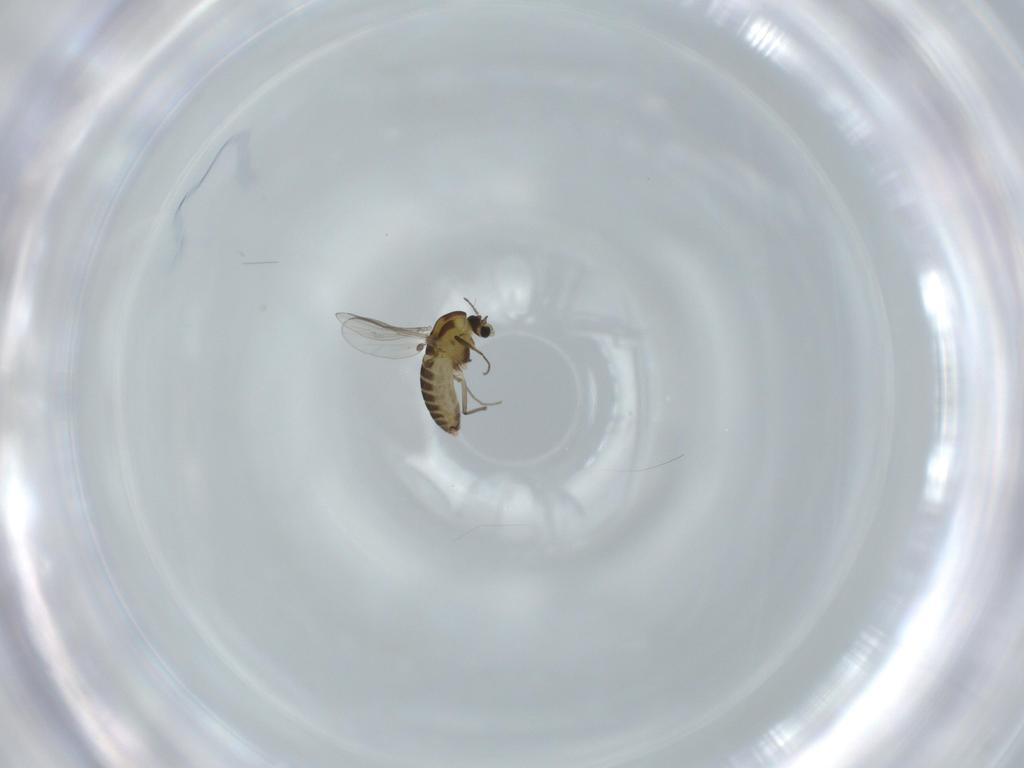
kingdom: Animalia
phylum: Arthropoda
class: Insecta
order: Diptera
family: Chironomidae
